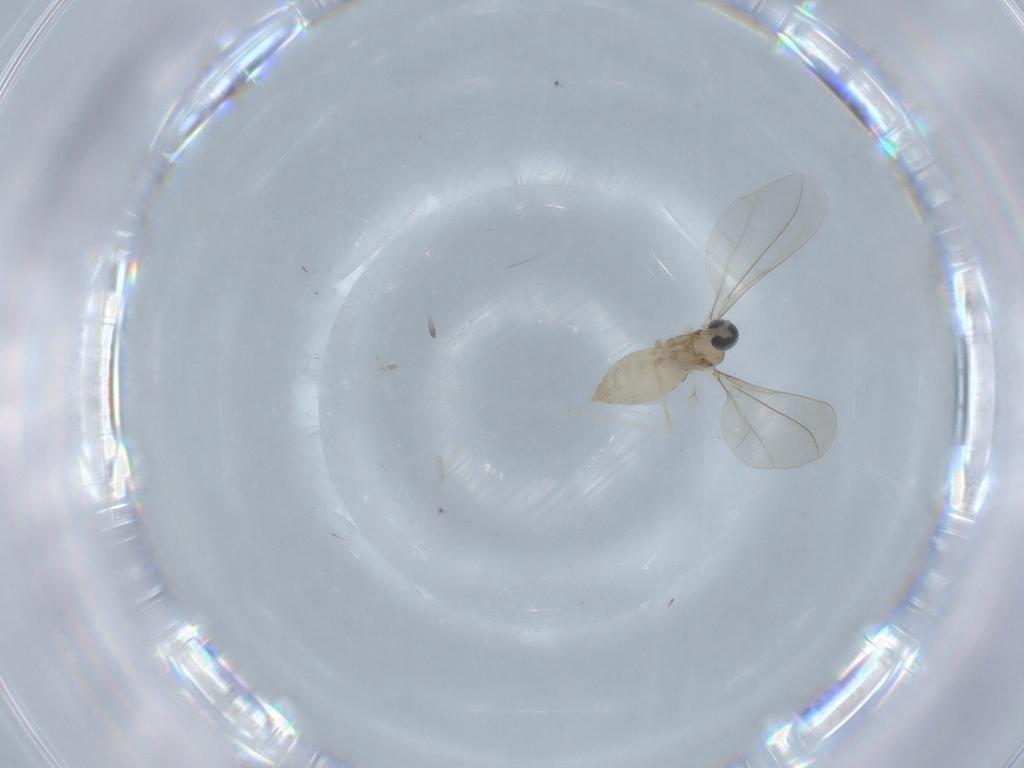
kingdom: Animalia
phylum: Arthropoda
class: Insecta
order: Diptera
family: Cecidomyiidae
